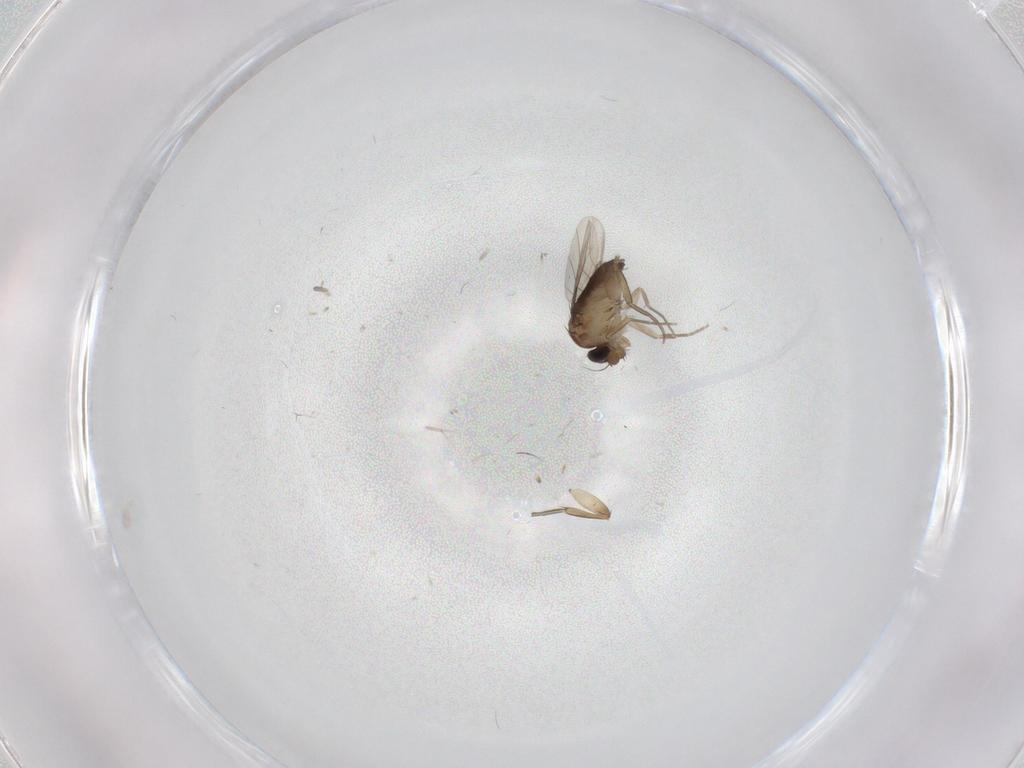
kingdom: Animalia
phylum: Arthropoda
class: Insecta
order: Diptera
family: Phoridae
